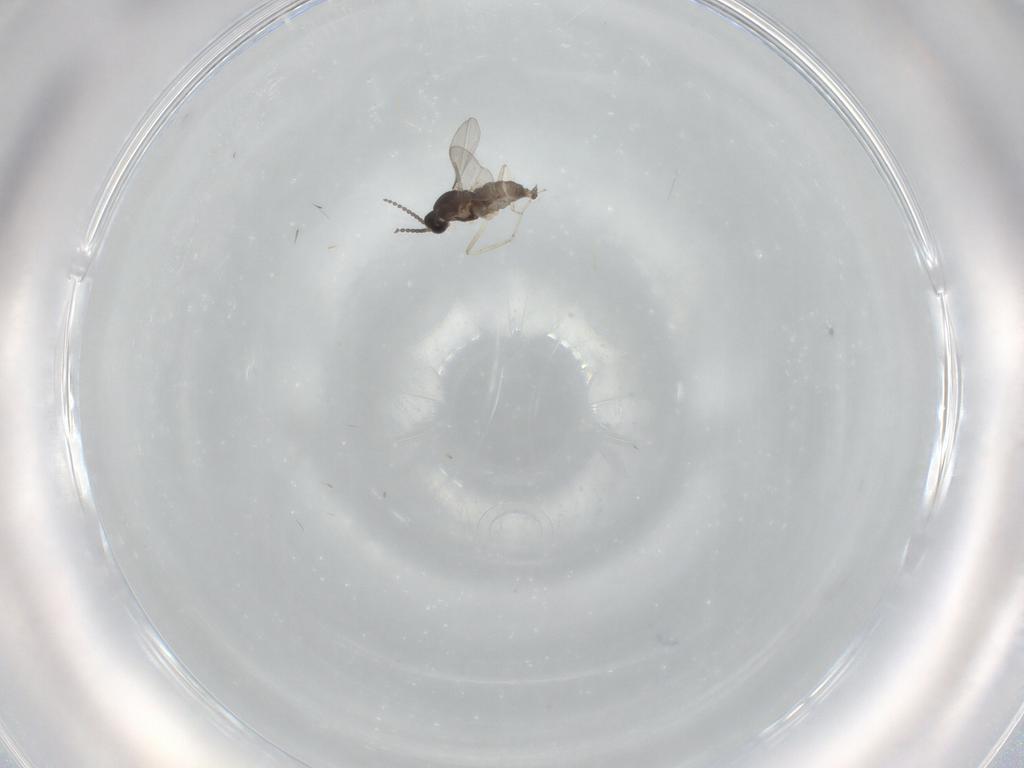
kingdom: Animalia
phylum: Arthropoda
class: Insecta
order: Diptera
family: Cecidomyiidae
